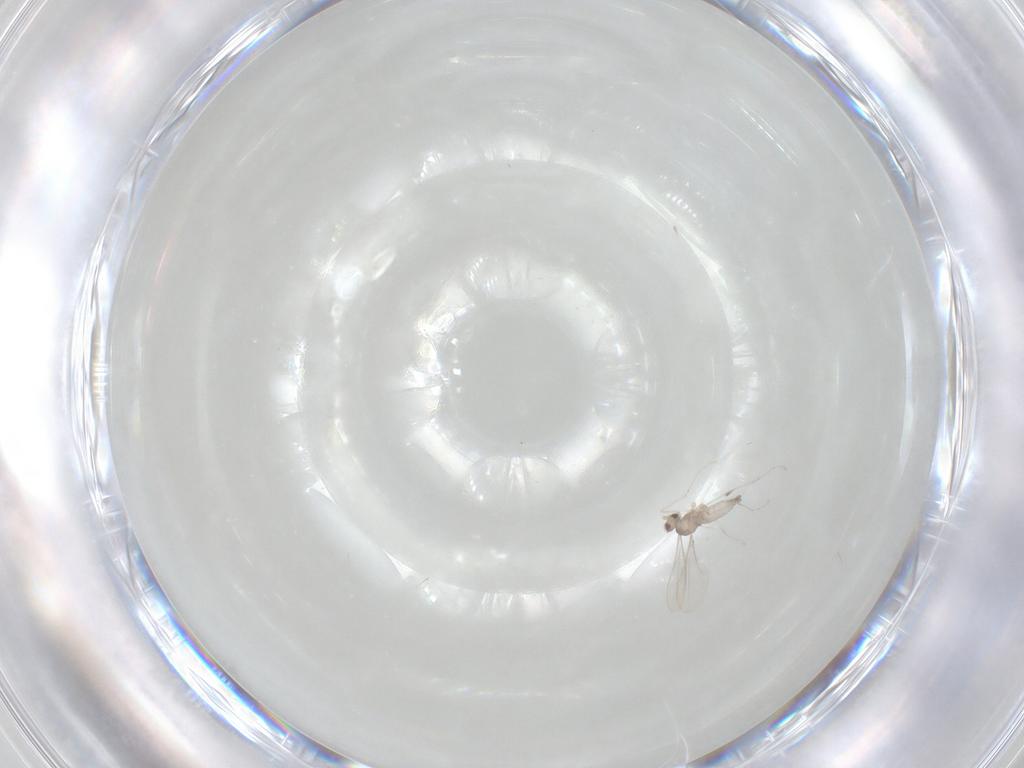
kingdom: Animalia
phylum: Arthropoda
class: Insecta
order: Diptera
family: Cecidomyiidae
